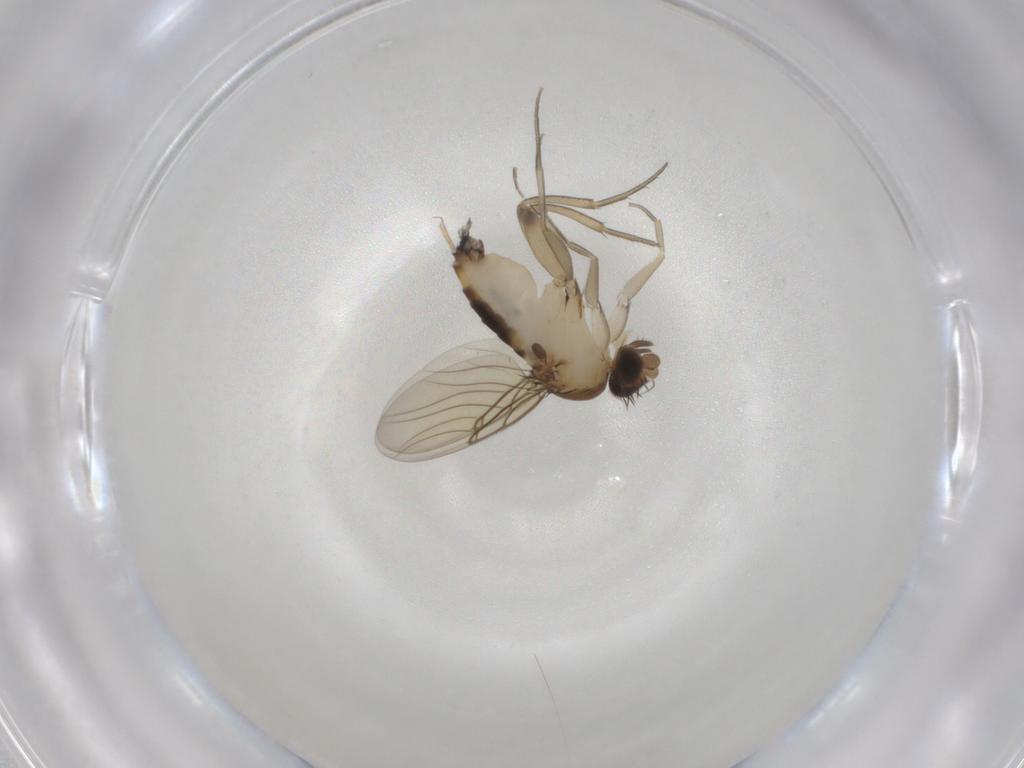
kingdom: Animalia
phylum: Arthropoda
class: Insecta
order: Diptera
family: Phoridae
